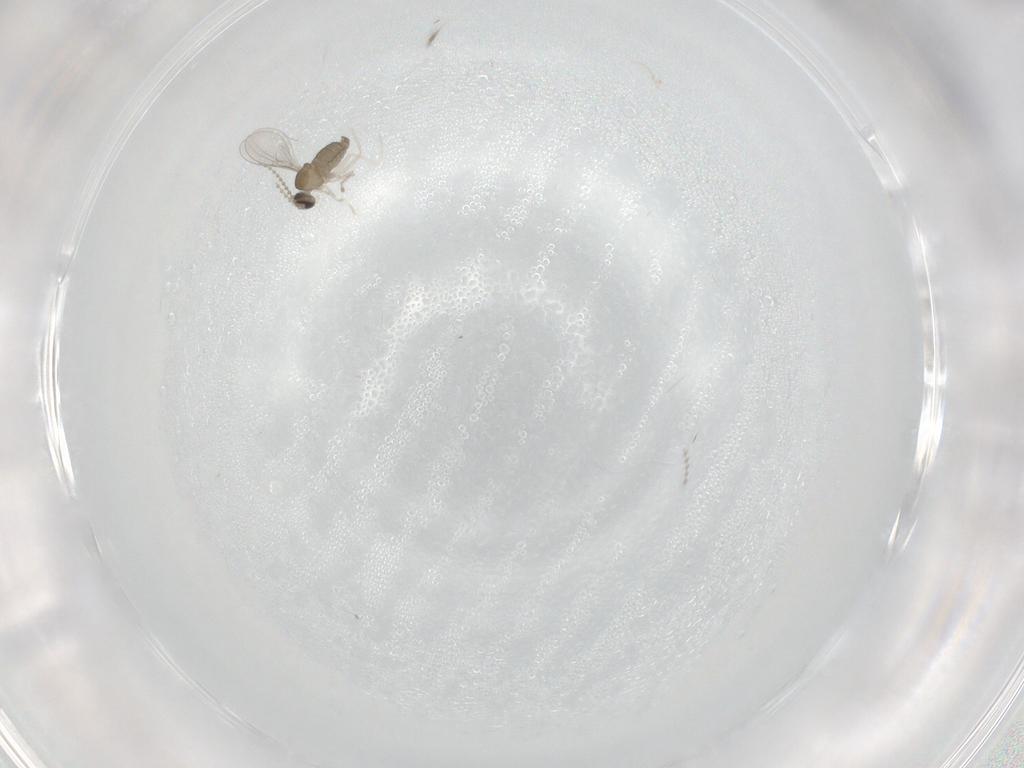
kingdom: Animalia
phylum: Arthropoda
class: Insecta
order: Diptera
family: Cecidomyiidae
